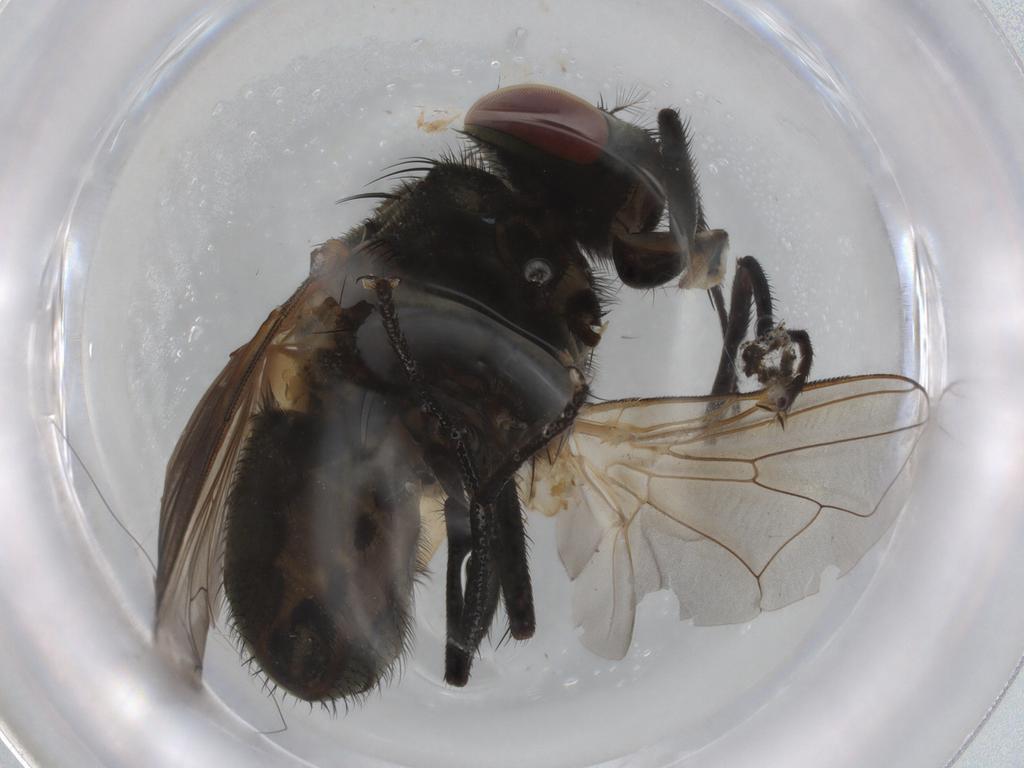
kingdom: Animalia
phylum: Arthropoda
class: Insecta
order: Diptera
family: Muscidae
